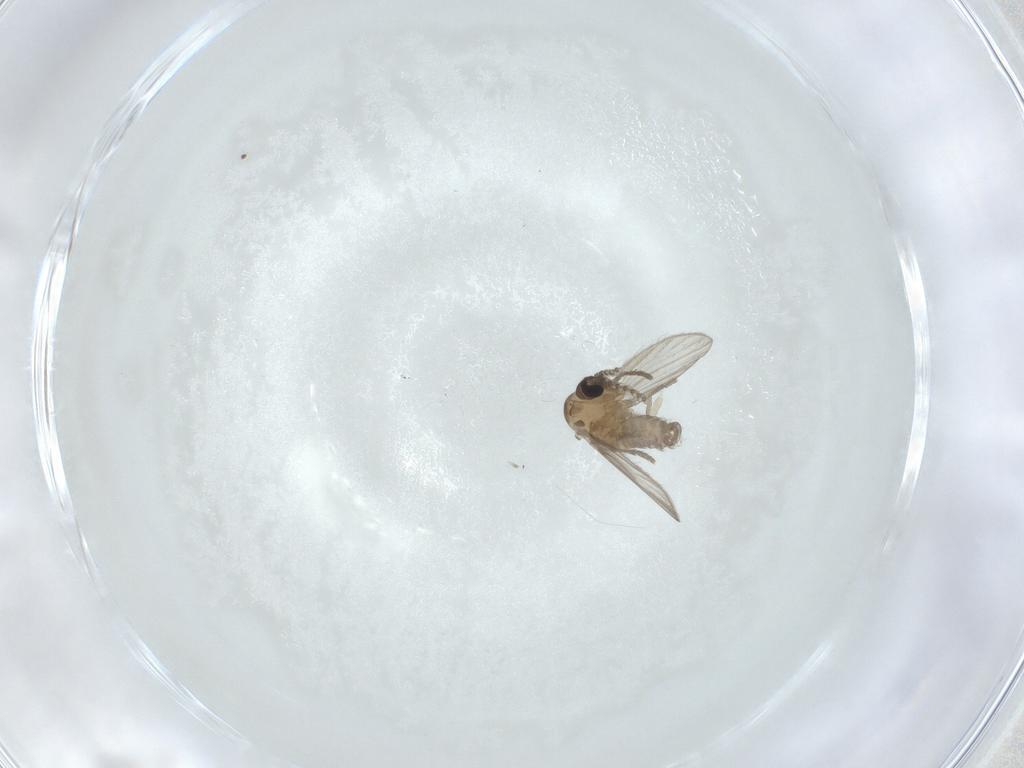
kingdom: Animalia
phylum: Arthropoda
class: Insecta
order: Diptera
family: Psychodidae
